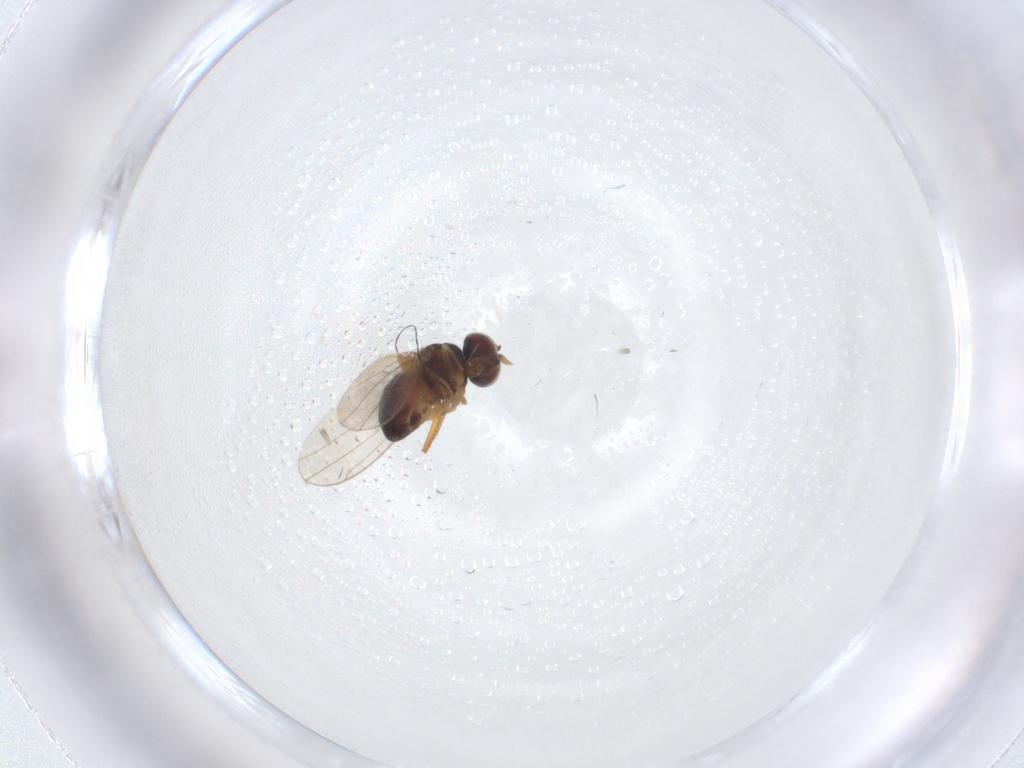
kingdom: Animalia
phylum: Arthropoda
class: Insecta
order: Diptera
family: Ephydridae
